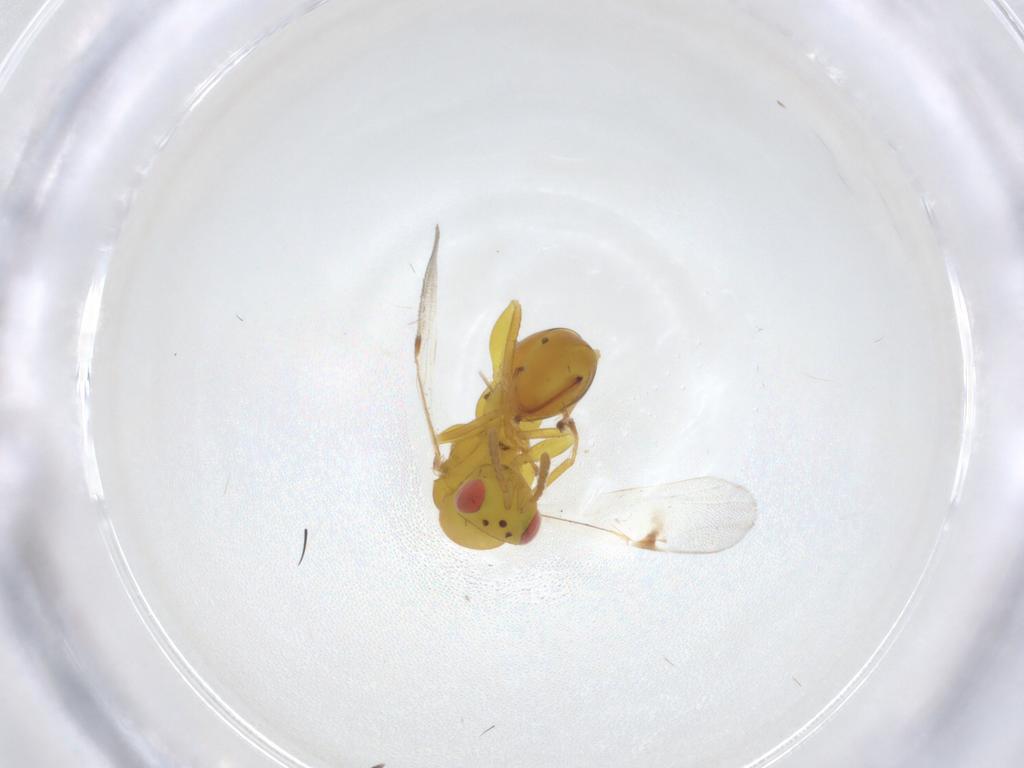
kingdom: Animalia
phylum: Arthropoda
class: Insecta
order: Hymenoptera
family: Eurytomidae
